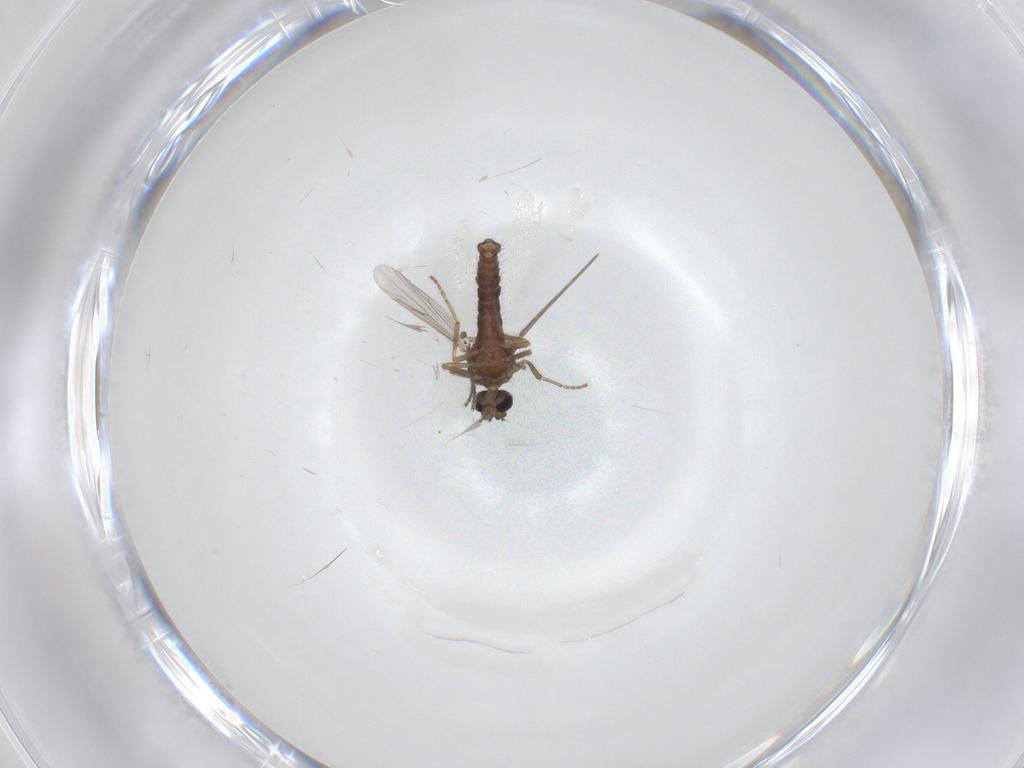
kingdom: Animalia
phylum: Arthropoda
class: Insecta
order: Diptera
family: Ceratopogonidae
